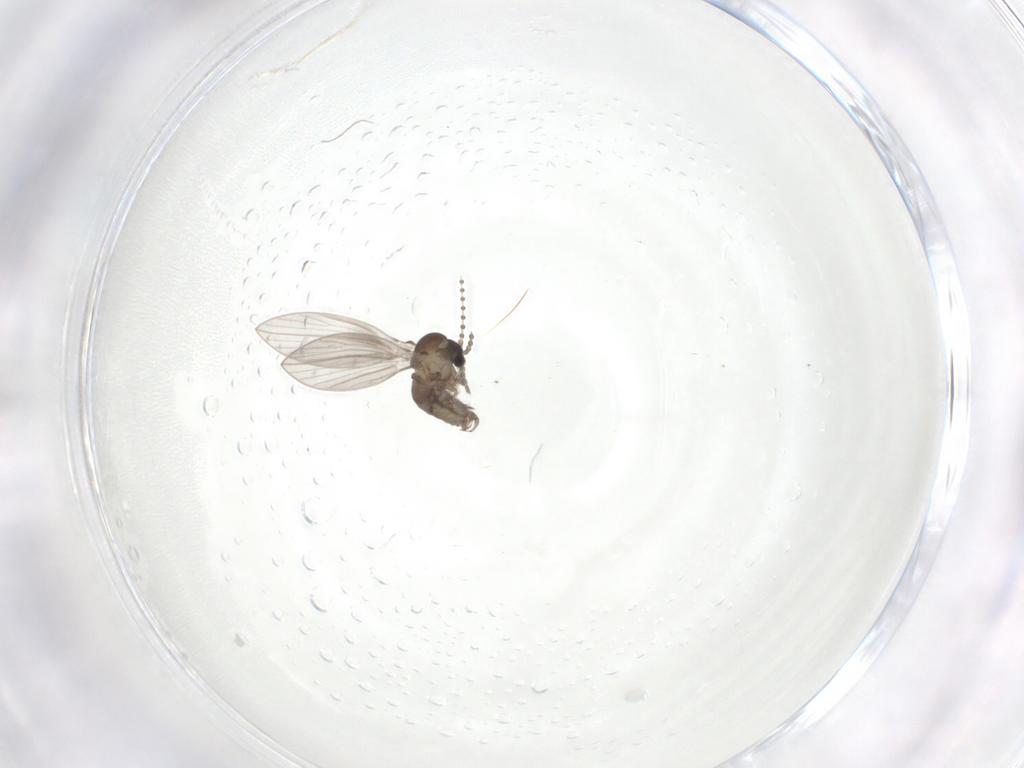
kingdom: Animalia
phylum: Arthropoda
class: Insecta
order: Diptera
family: Psychodidae
